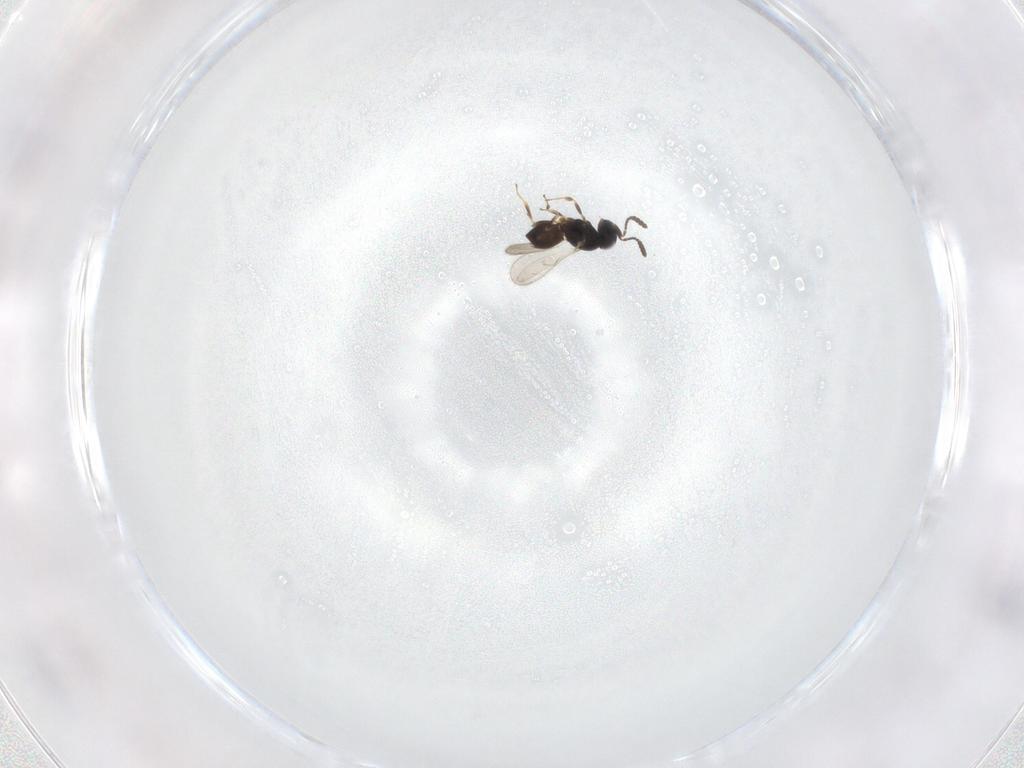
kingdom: Animalia
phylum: Arthropoda
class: Insecta
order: Hymenoptera
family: Scelionidae
